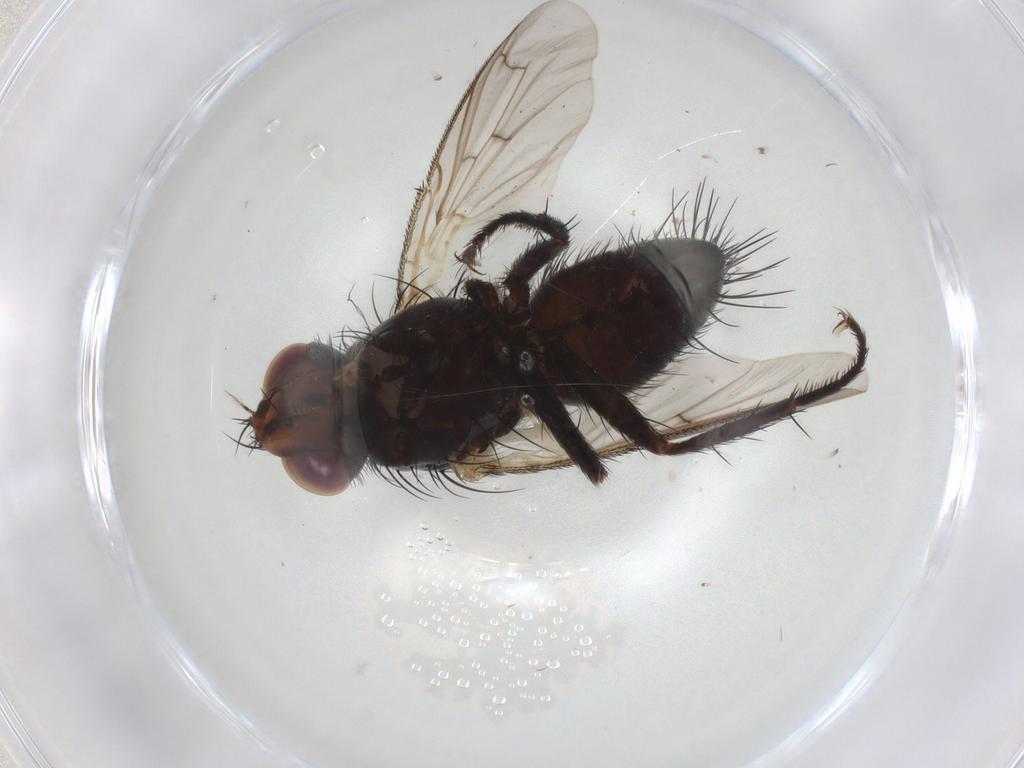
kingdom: Animalia
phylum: Arthropoda
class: Insecta
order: Diptera
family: Tachinidae
